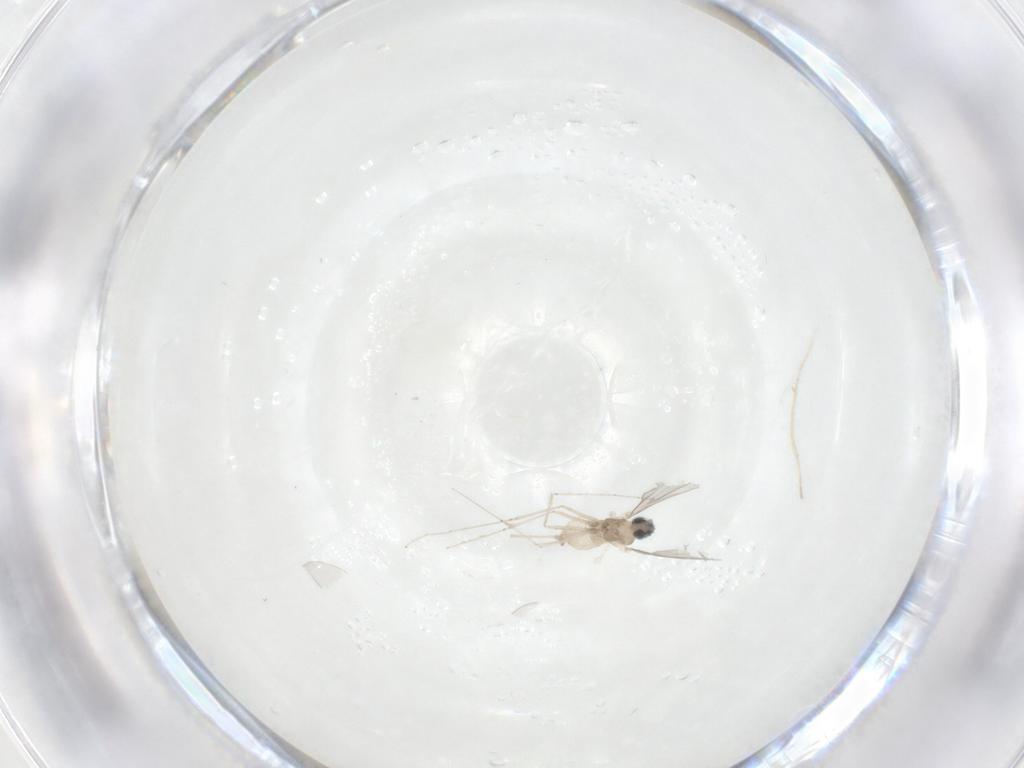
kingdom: Animalia
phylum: Arthropoda
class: Insecta
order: Diptera
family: Cecidomyiidae
